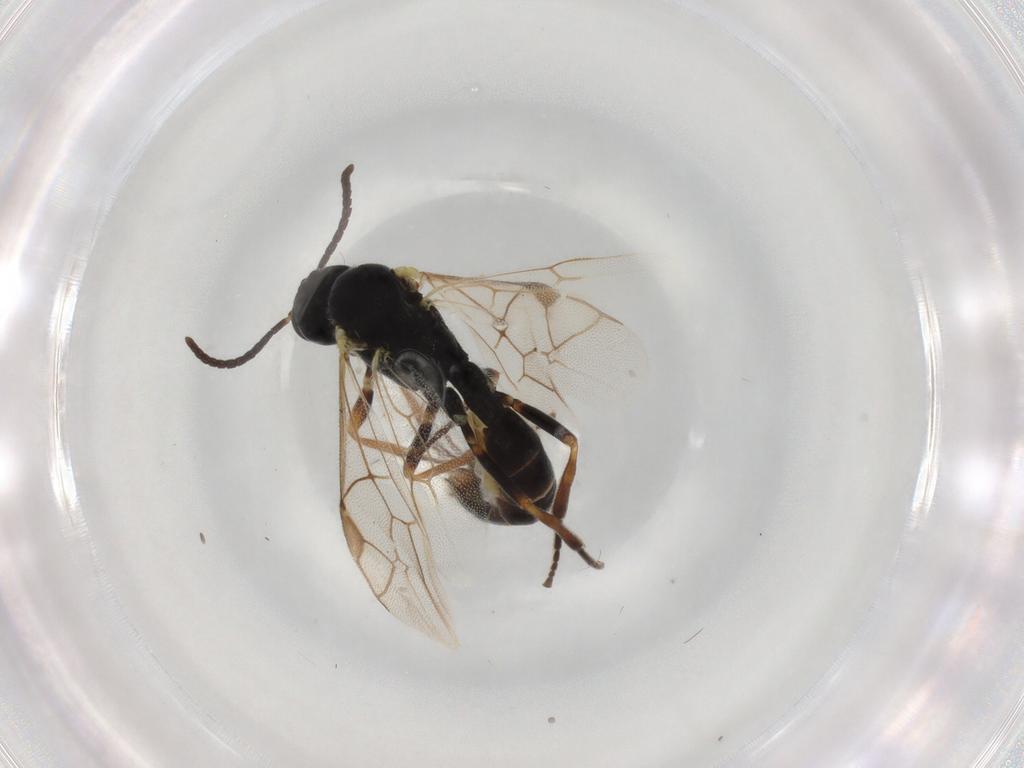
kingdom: Animalia
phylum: Arthropoda
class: Insecta
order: Hymenoptera
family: Ichneumonidae
